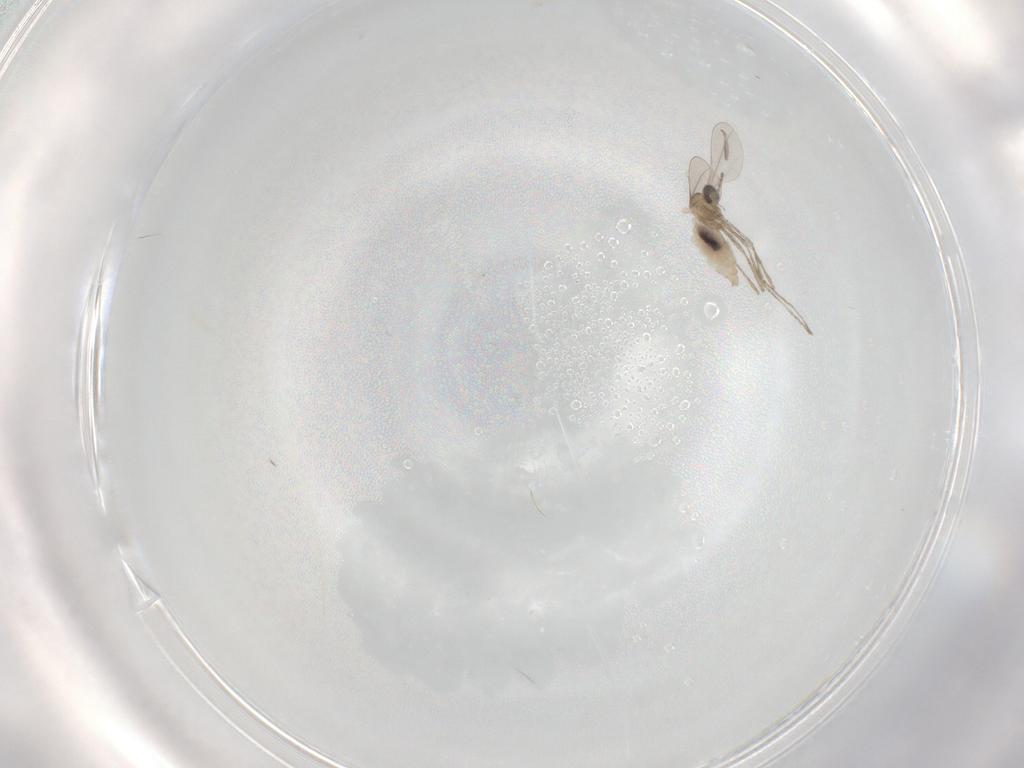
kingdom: Animalia
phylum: Arthropoda
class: Insecta
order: Diptera
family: Cecidomyiidae
